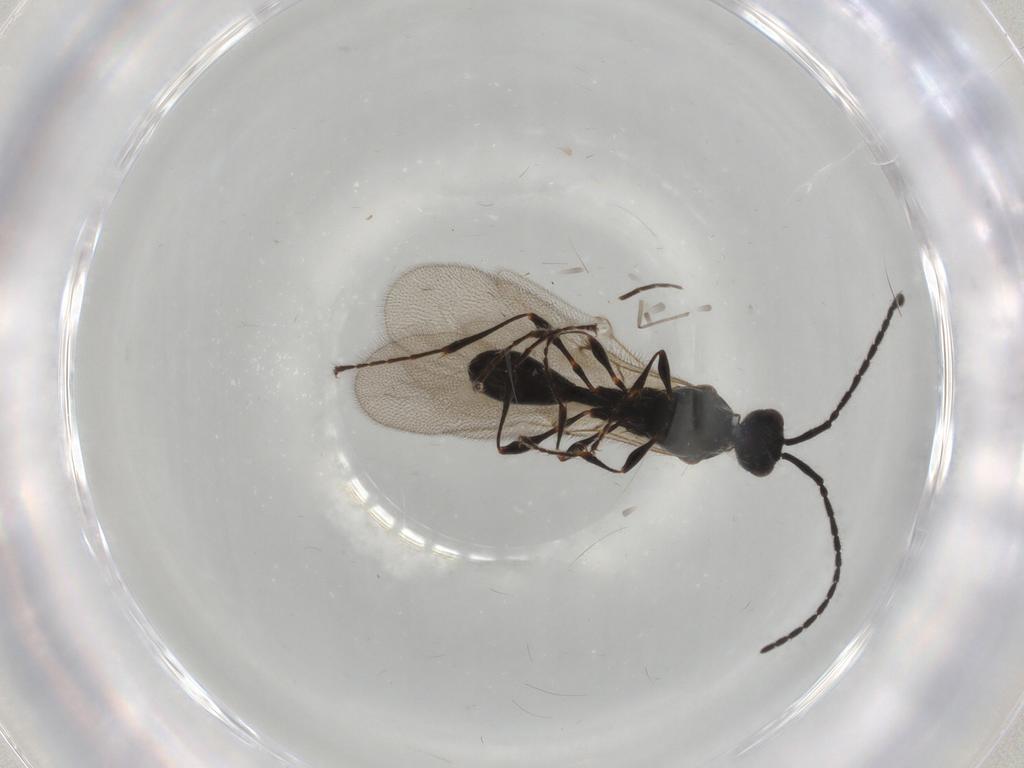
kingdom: Animalia
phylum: Arthropoda
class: Insecta
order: Hymenoptera
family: Diapriidae
